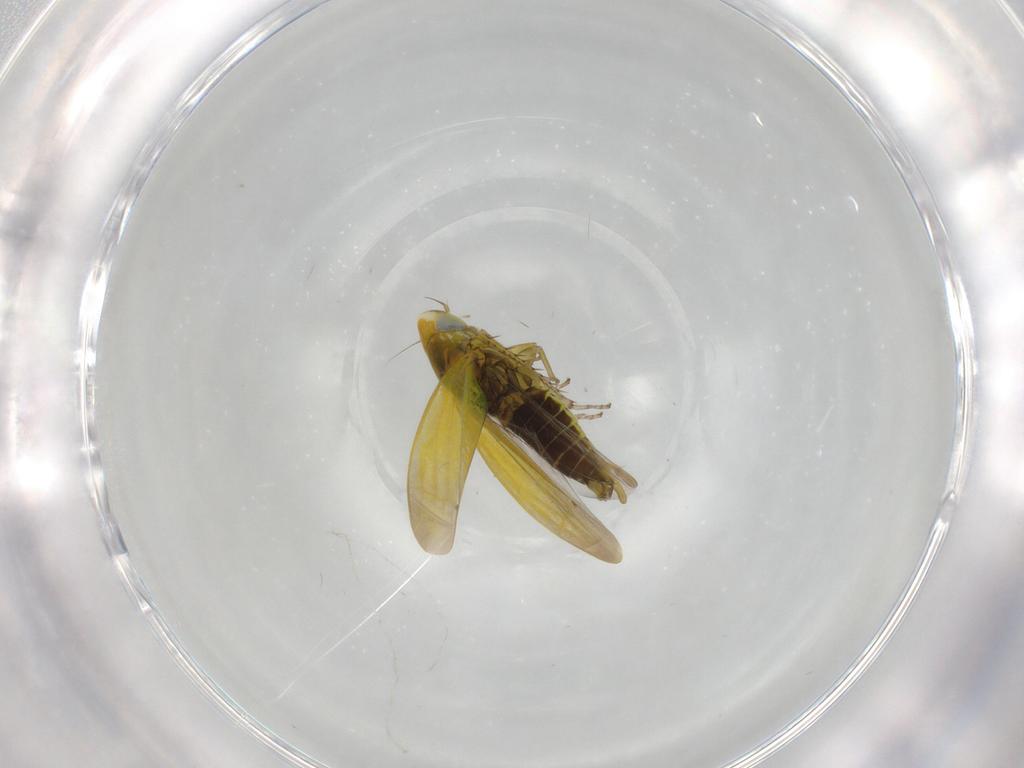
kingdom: Animalia
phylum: Arthropoda
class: Insecta
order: Hemiptera
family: Cicadellidae
